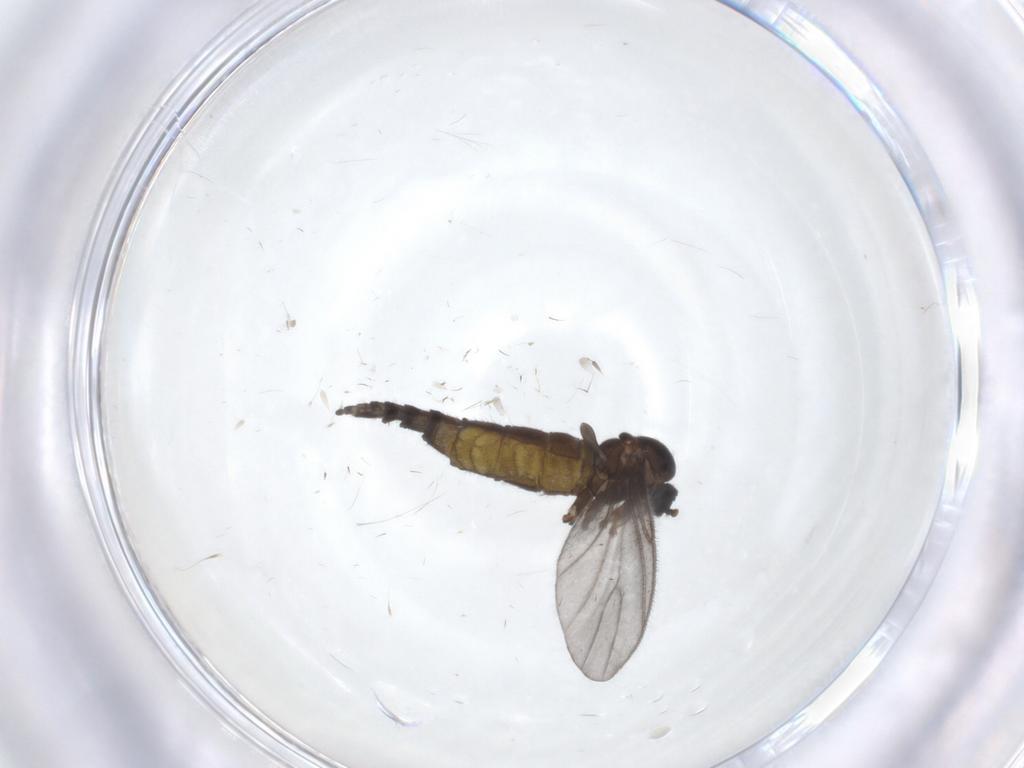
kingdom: Animalia
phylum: Arthropoda
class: Insecta
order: Diptera
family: Sciaridae
